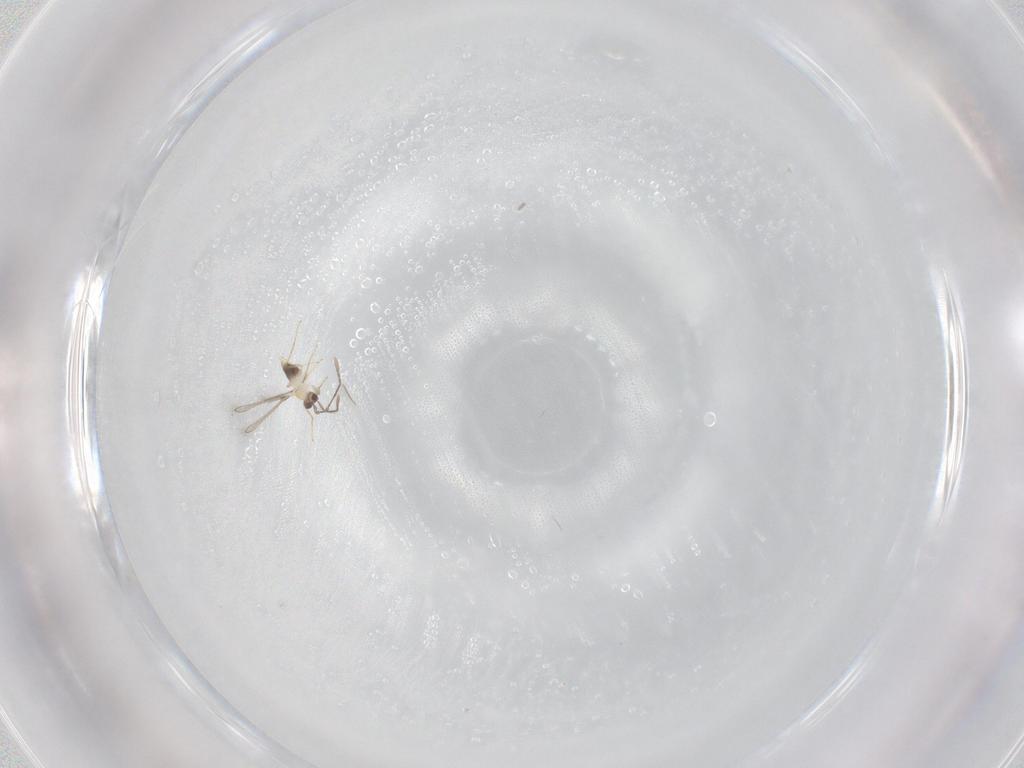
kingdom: Animalia
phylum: Arthropoda
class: Insecta
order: Hymenoptera
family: Mymaridae
